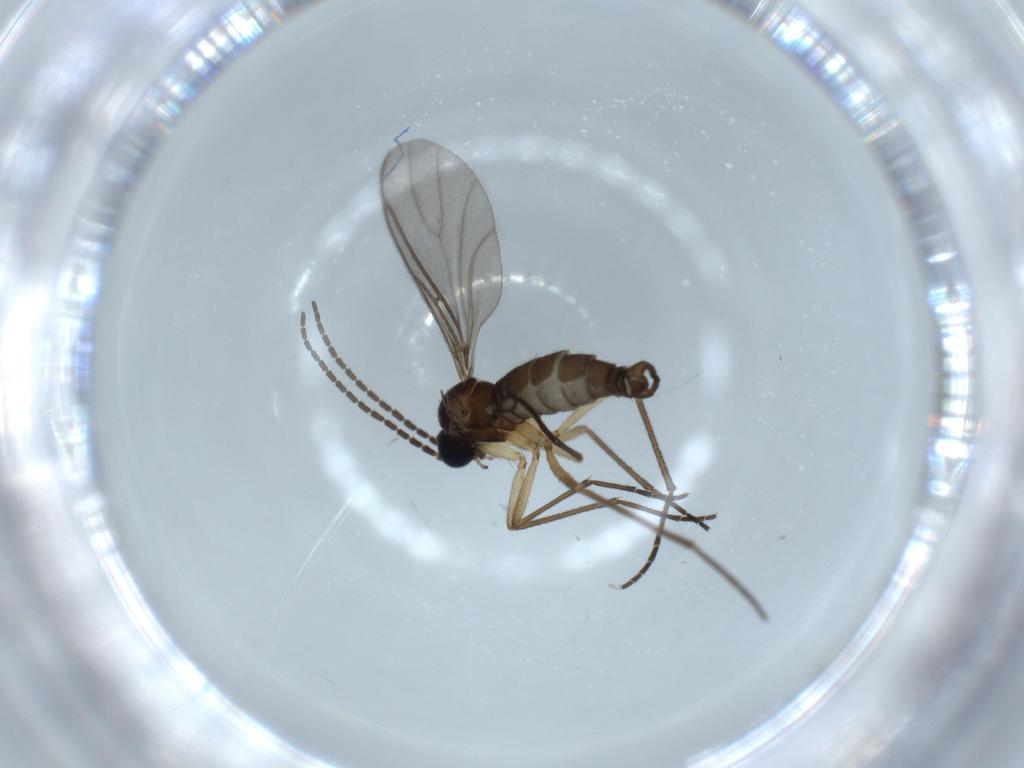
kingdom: Animalia
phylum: Arthropoda
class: Insecta
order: Diptera
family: Sciaridae
